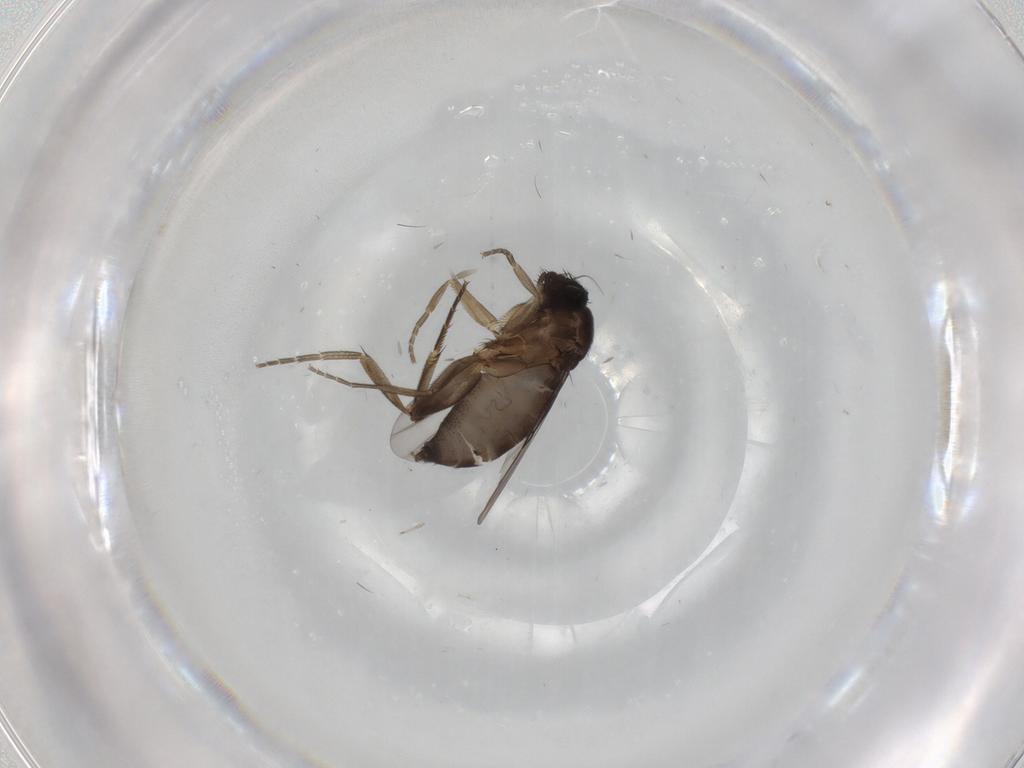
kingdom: Animalia
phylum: Arthropoda
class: Insecta
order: Diptera
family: Phoridae
